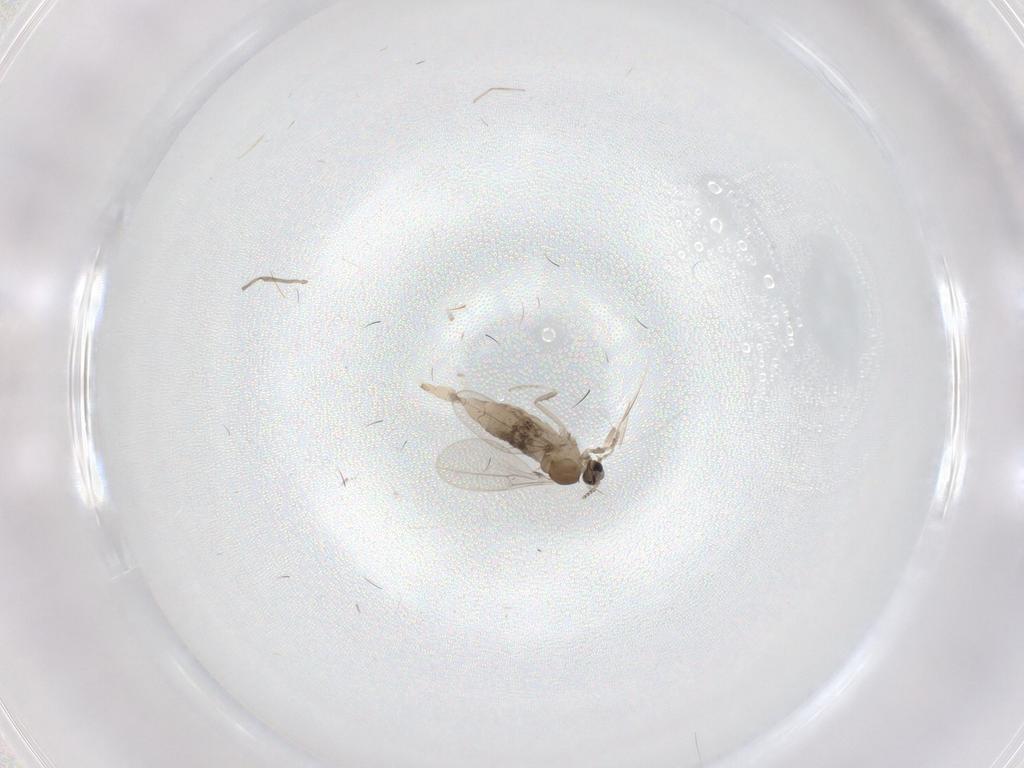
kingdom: Animalia
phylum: Arthropoda
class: Insecta
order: Diptera
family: Cecidomyiidae
